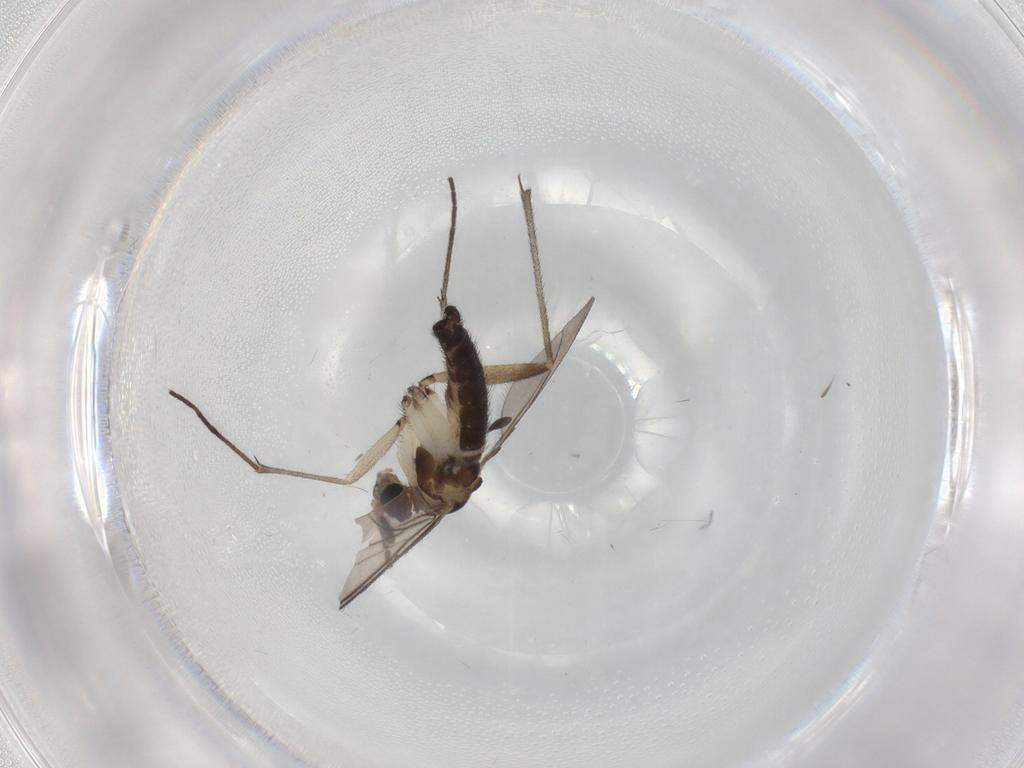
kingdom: Animalia
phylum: Arthropoda
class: Insecta
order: Diptera
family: Sciaridae
